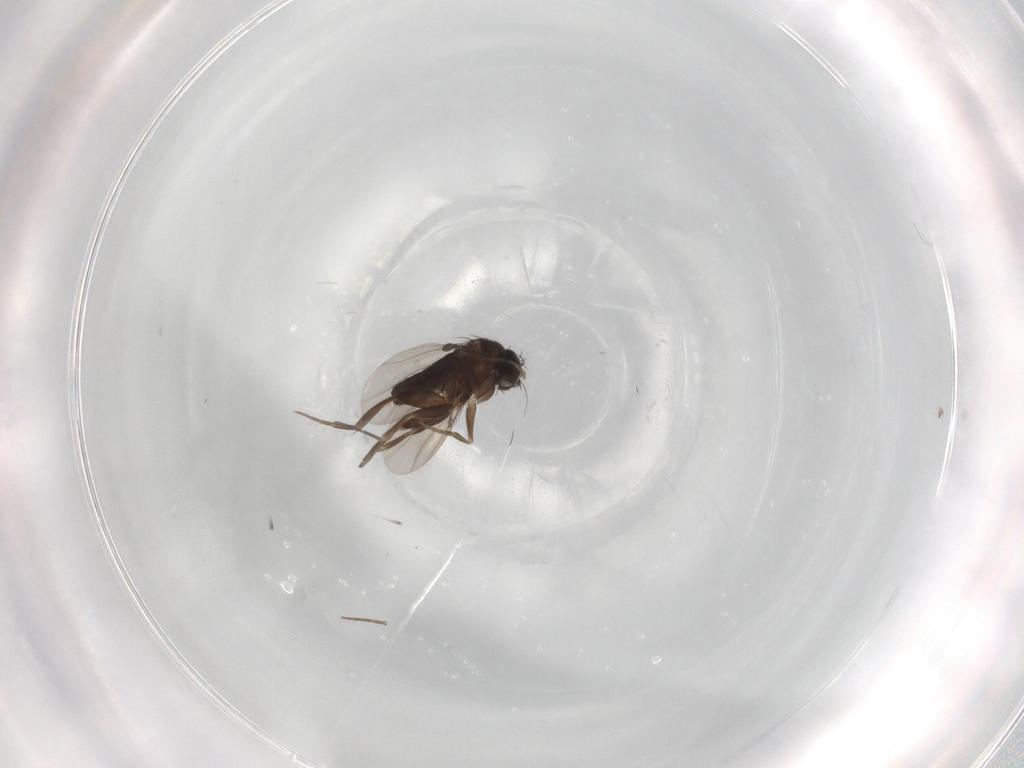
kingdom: Animalia
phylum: Arthropoda
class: Insecta
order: Diptera
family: Phoridae
